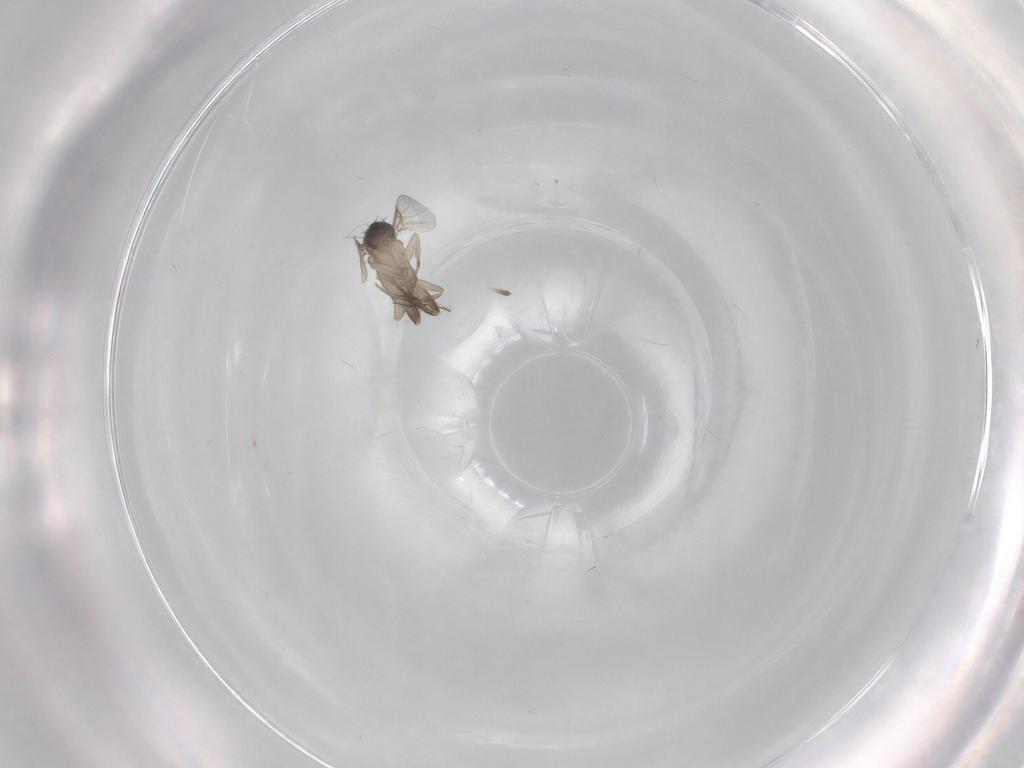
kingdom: Animalia
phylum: Arthropoda
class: Insecta
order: Diptera
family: Phoridae
